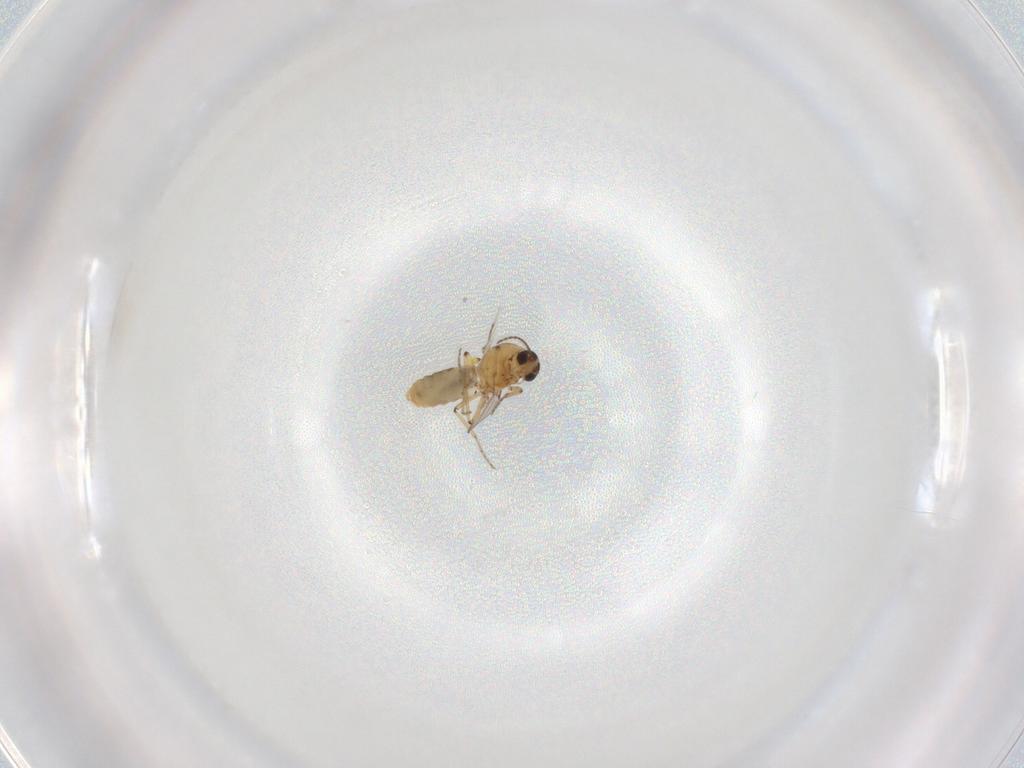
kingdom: Animalia
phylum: Arthropoda
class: Insecta
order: Diptera
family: Ceratopogonidae
